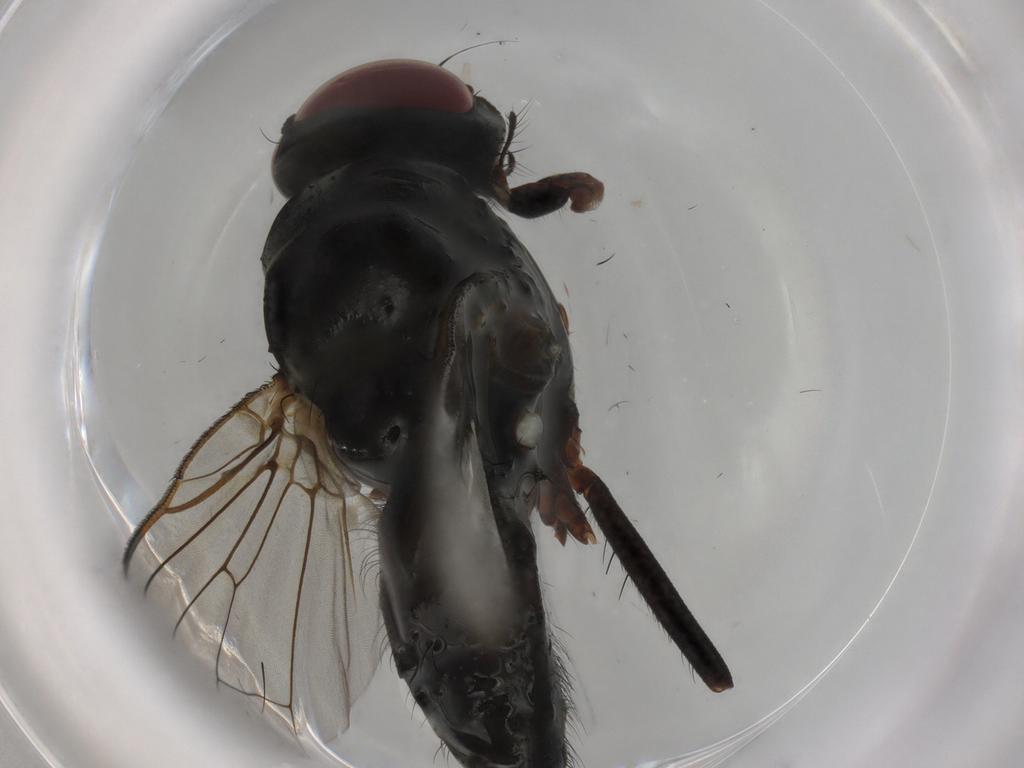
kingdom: Animalia
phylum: Arthropoda
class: Insecta
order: Diptera
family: Anthomyiidae
